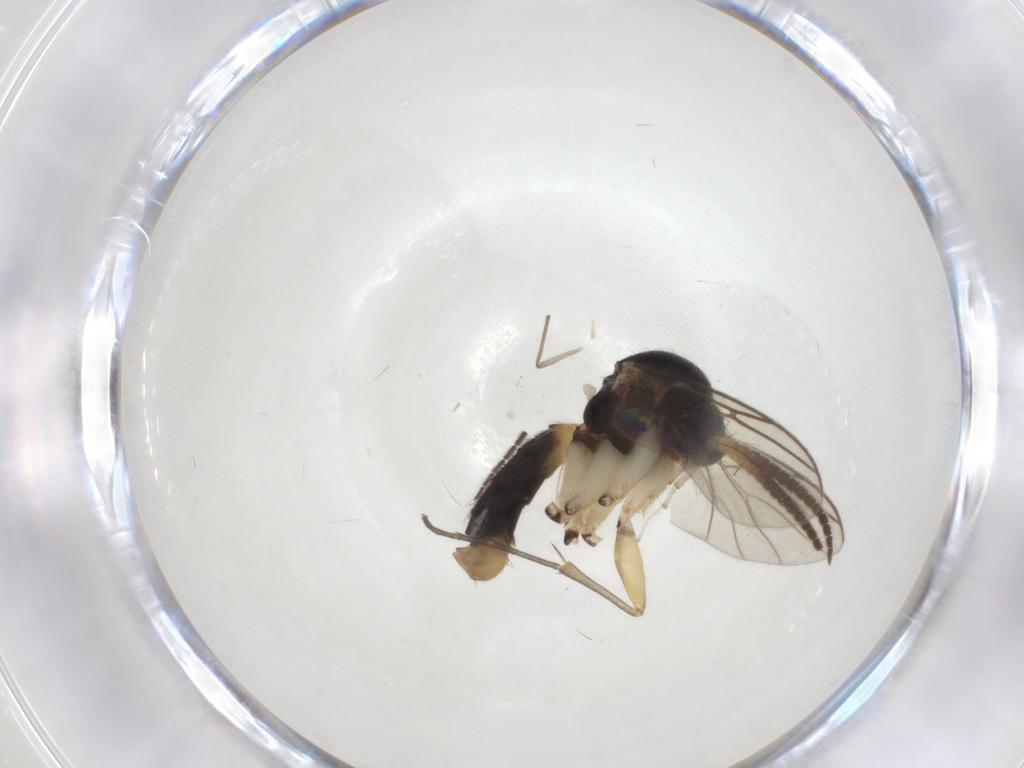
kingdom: Animalia
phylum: Arthropoda
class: Insecta
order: Diptera
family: Mycetophilidae
